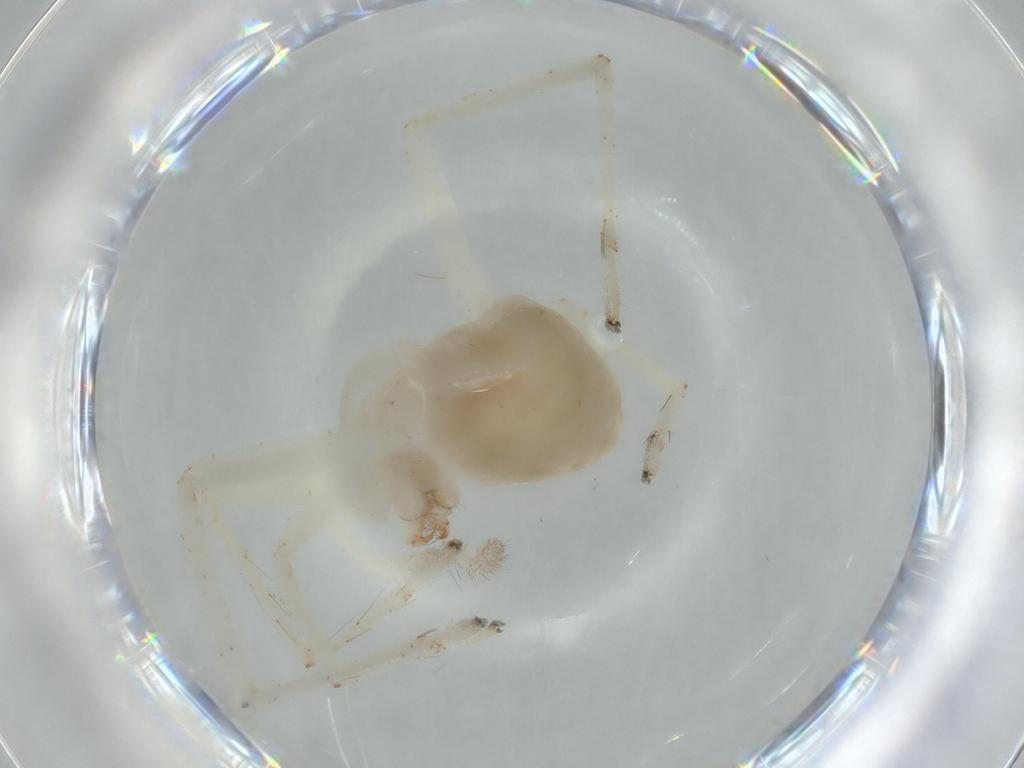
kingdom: Animalia
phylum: Arthropoda
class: Arachnida
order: Araneae
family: Anyphaenidae
